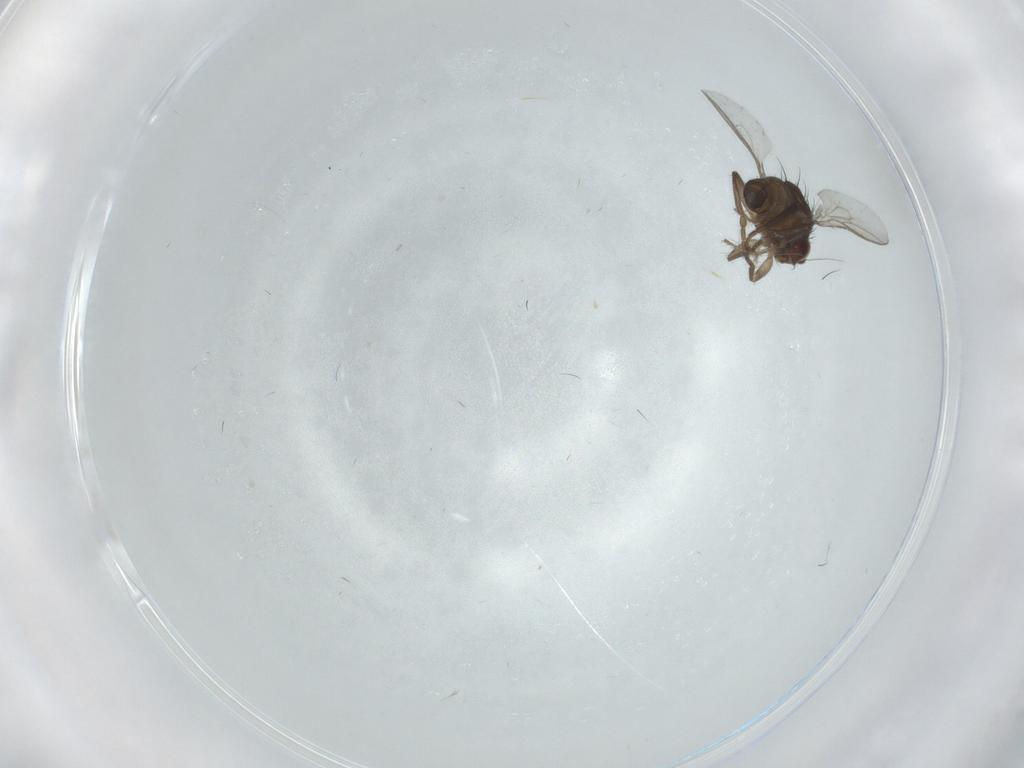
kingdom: Animalia
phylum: Arthropoda
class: Insecta
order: Diptera
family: Sphaeroceridae
